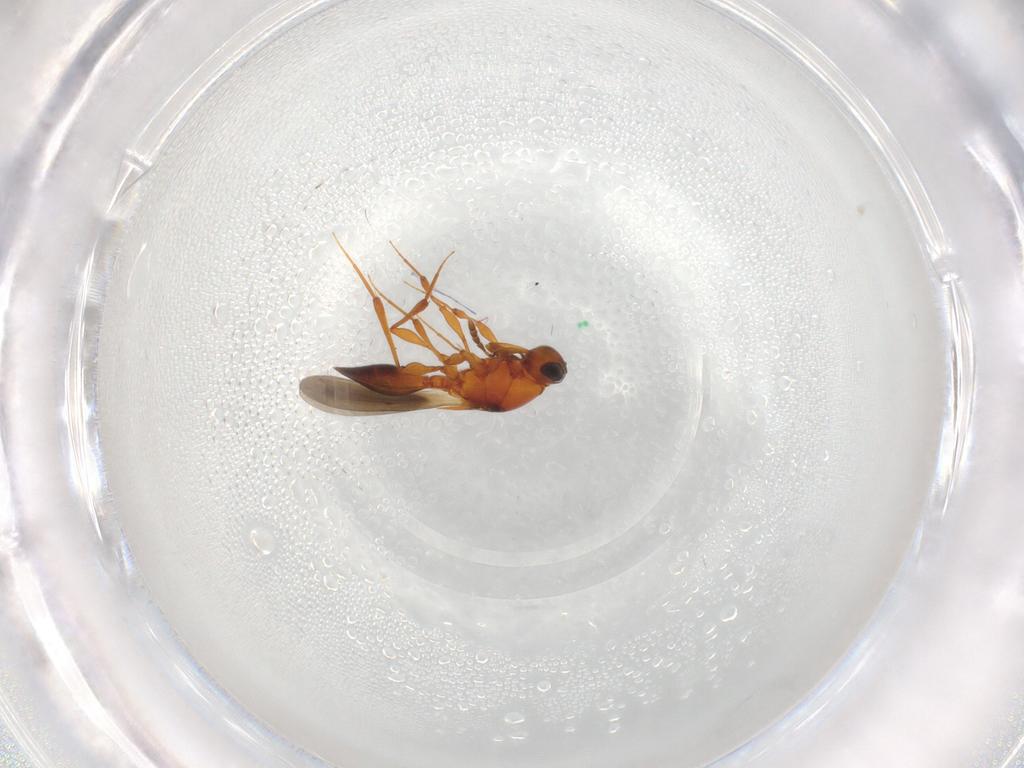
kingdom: Animalia
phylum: Arthropoda
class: Insecta
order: Hymenoptera
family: Platygastridae
